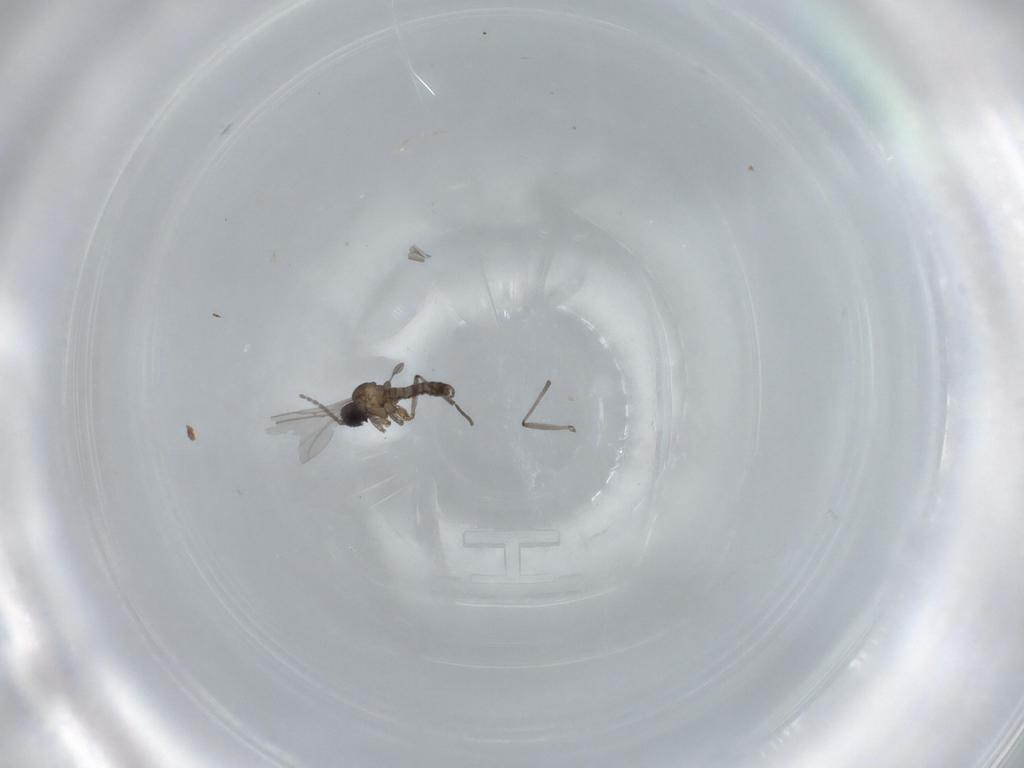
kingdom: Animalia
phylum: Arthropoda
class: Insecta
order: Diptera
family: Sciaridae
